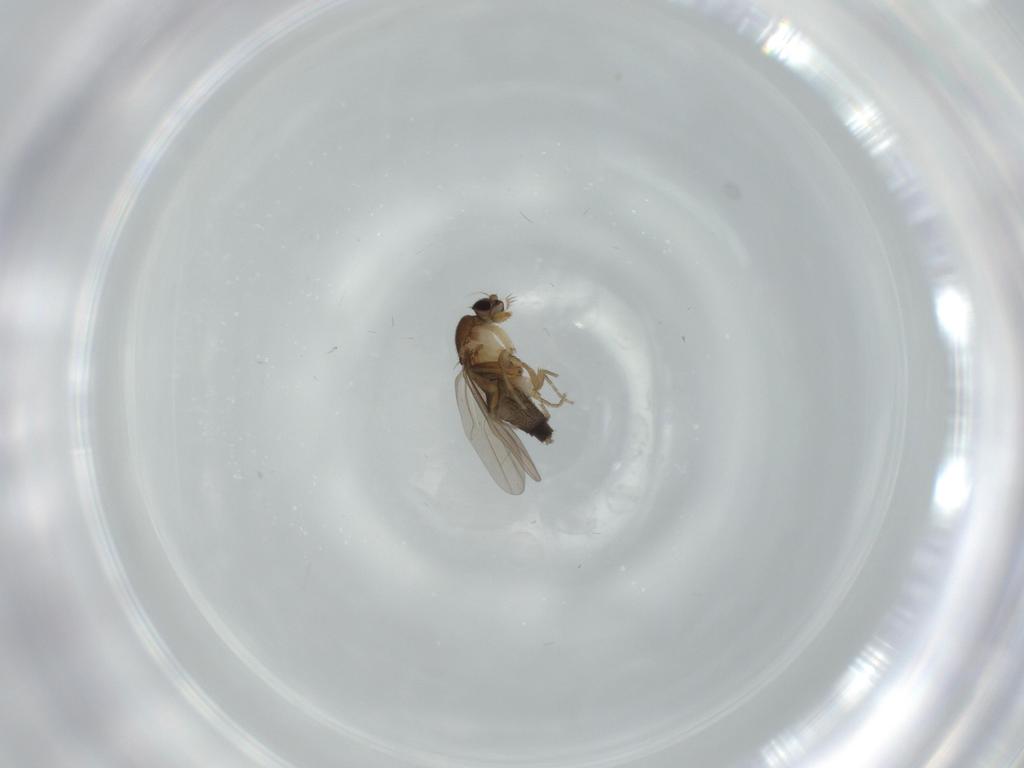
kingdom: Animalia
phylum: Arthropoda
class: Insecta
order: Diptera
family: Phoridae
